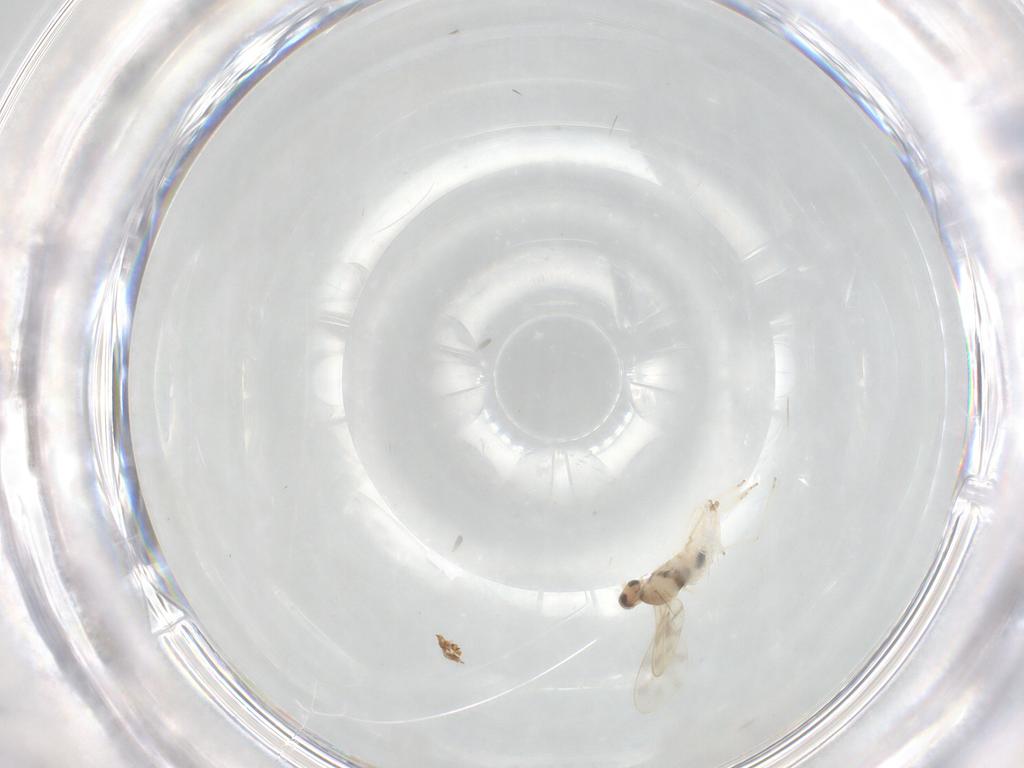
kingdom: Animalia
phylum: Arthropoda
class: Insecta
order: Diptera
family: Cecidomyiidae
